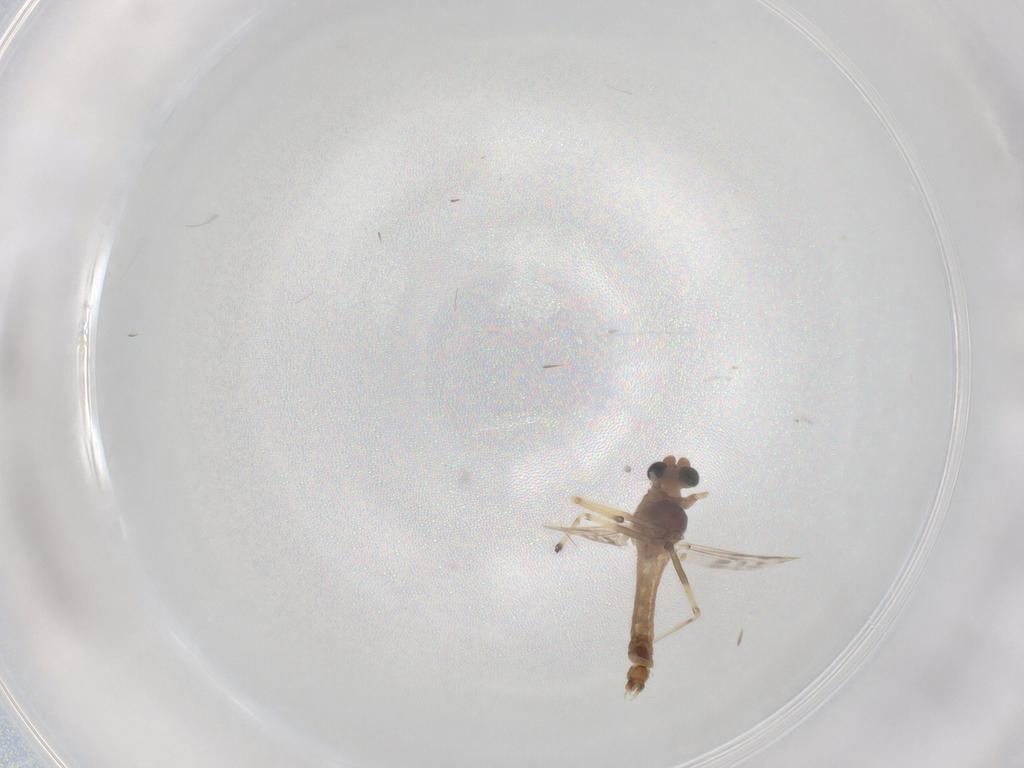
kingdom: Animalia
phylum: Arthropoda
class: Insecta
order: Diptera
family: Chironomidae
